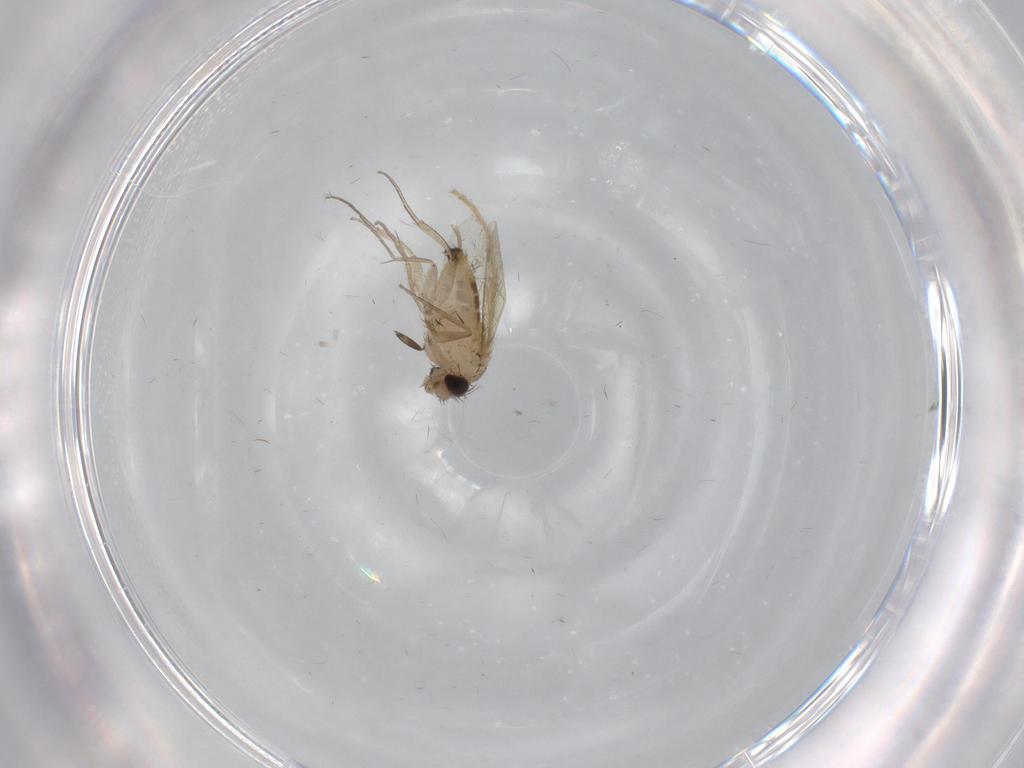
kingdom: Animalia
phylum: Arthropoda
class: Insecta
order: Diptera
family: Phoridae
